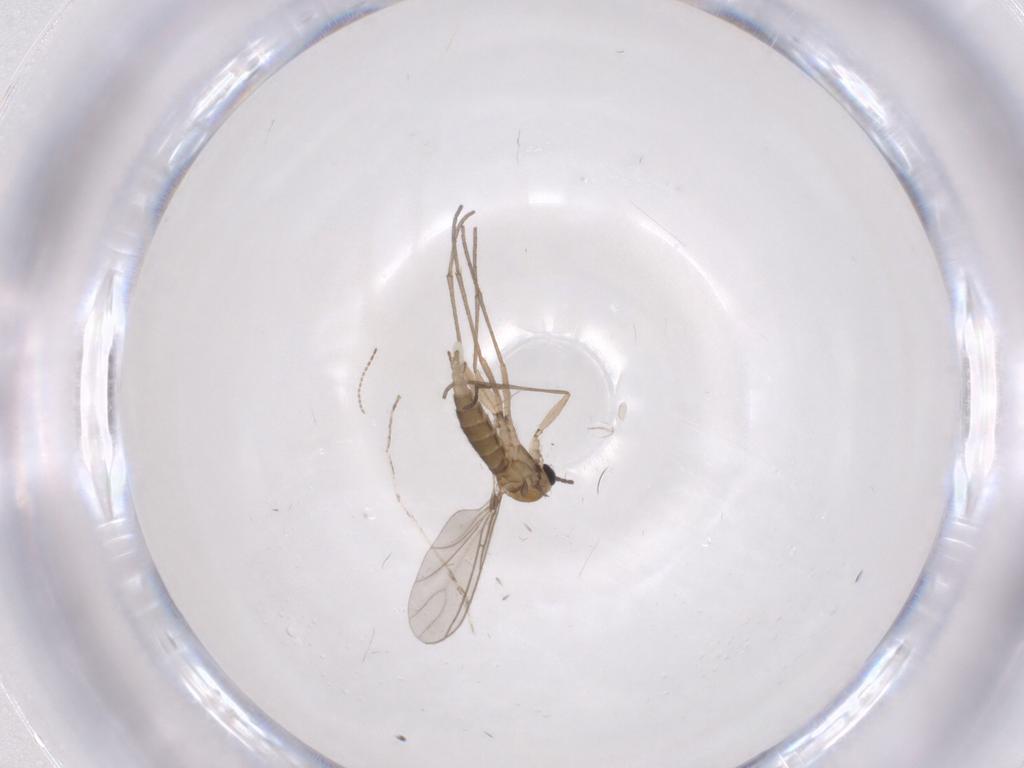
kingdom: Animalia
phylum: Arthropoda
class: Insecta
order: Diptera
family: Sciaridae
